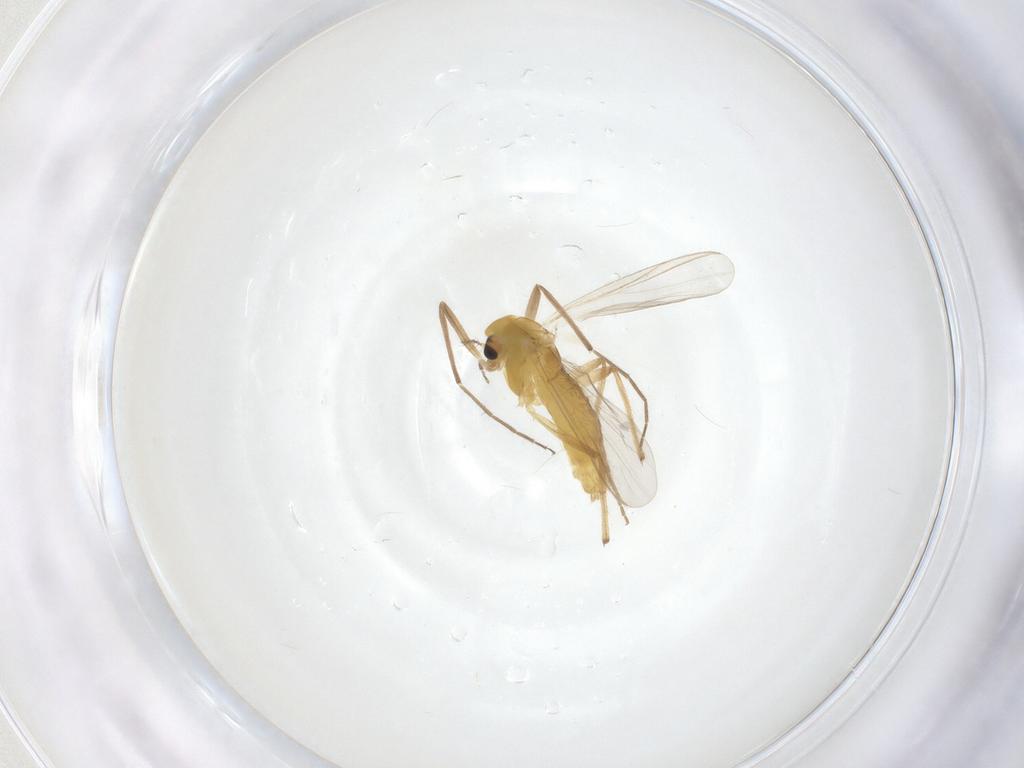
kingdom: Animalia
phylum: Arthropoda
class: Insecta
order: Diptera
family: Chironomidae
